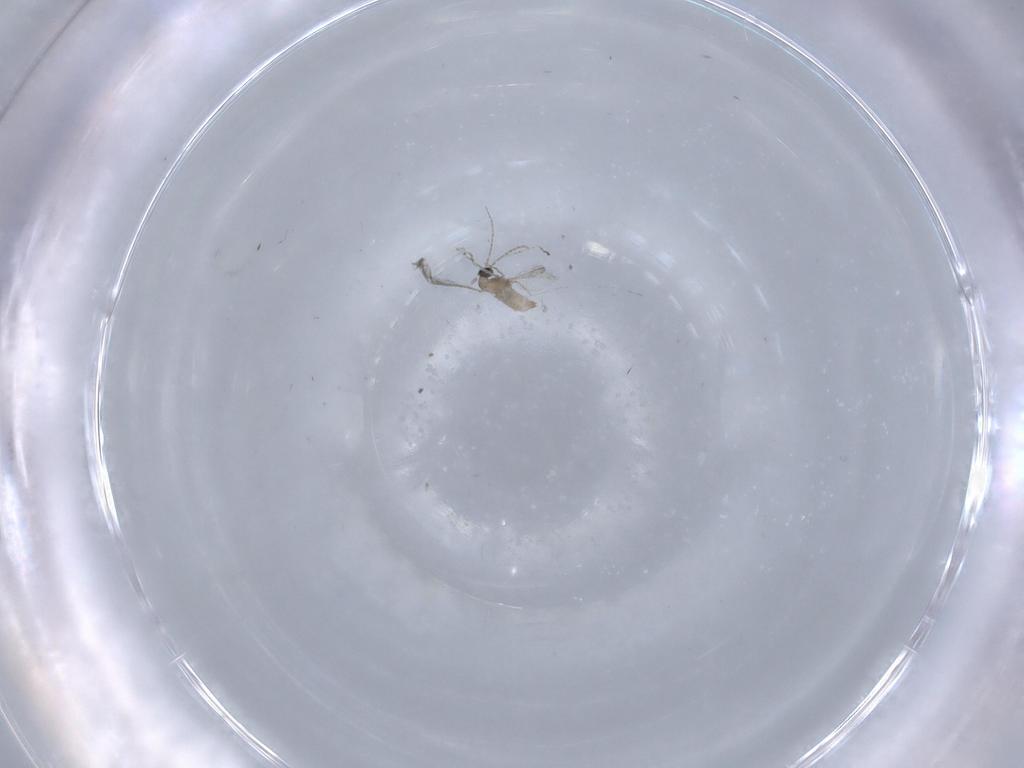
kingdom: Animalia
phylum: Arthropoda
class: Insecta
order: Diptera
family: Cecidomyiidae
